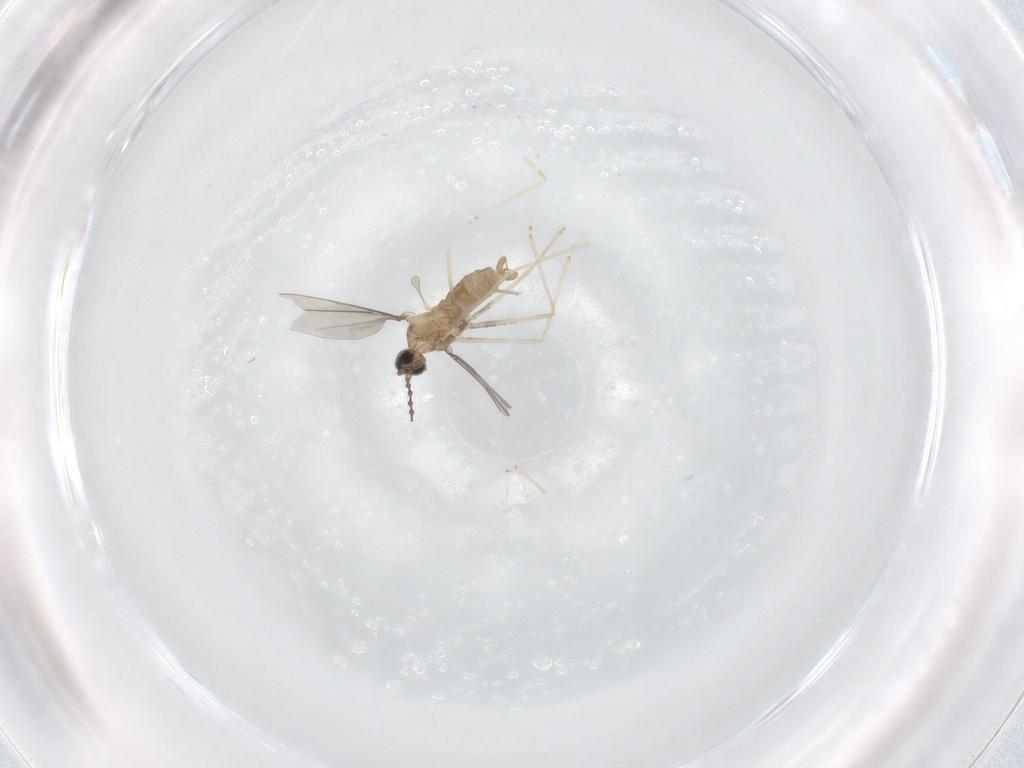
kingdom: Animalia
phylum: Arthropoda
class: Insecta
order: Diptera
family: Cecidomyiidae
